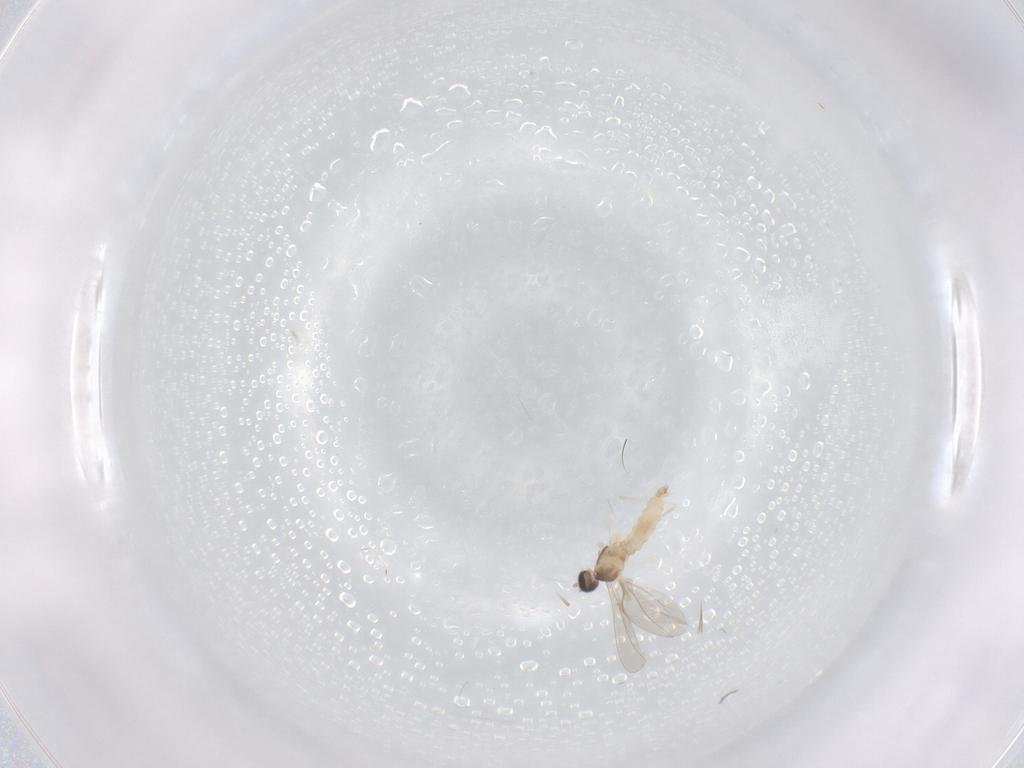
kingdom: Animalia
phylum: Arthropoda
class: Insecta
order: Diptera
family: Cecidomyiidae
